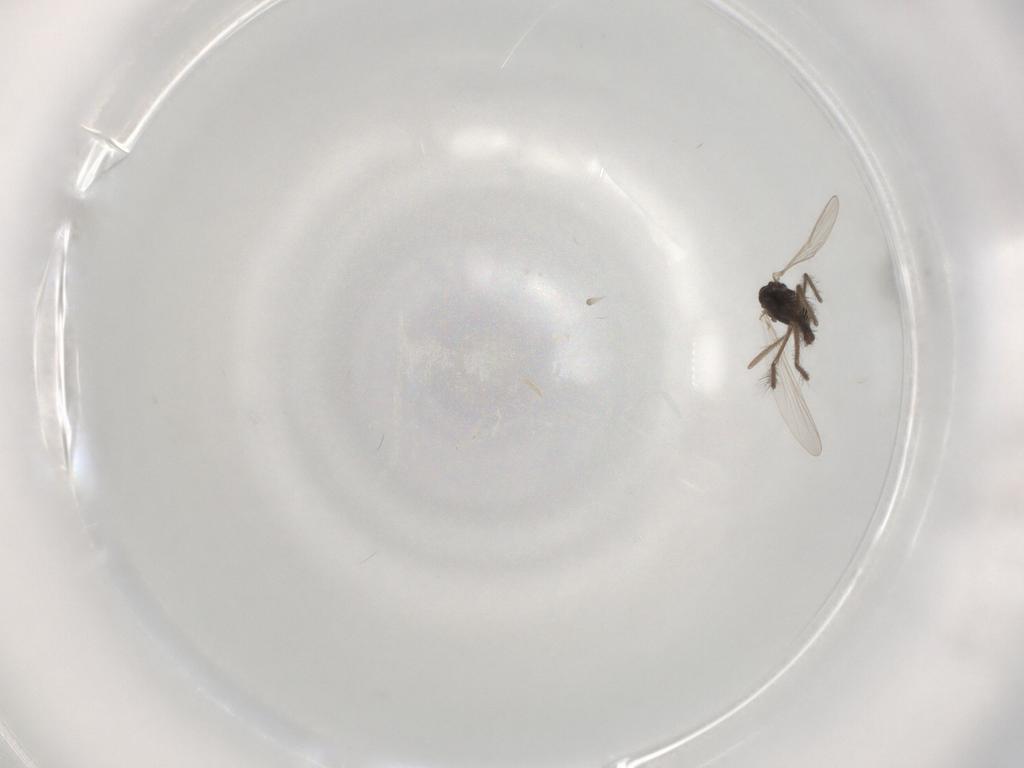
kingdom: Animalia
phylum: Arthropoda
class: Insecta
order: Diptera
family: Chironomidae
